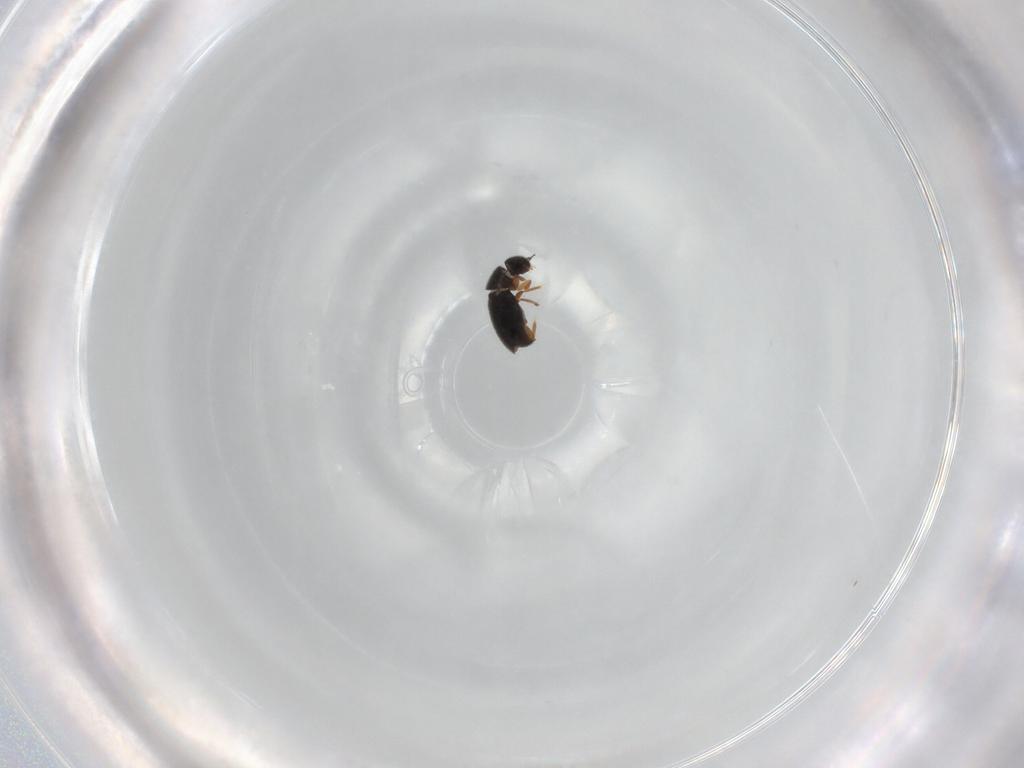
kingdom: Animalia
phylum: Arthropoda
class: Insecta
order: Coleoptera
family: Ptiliidae
